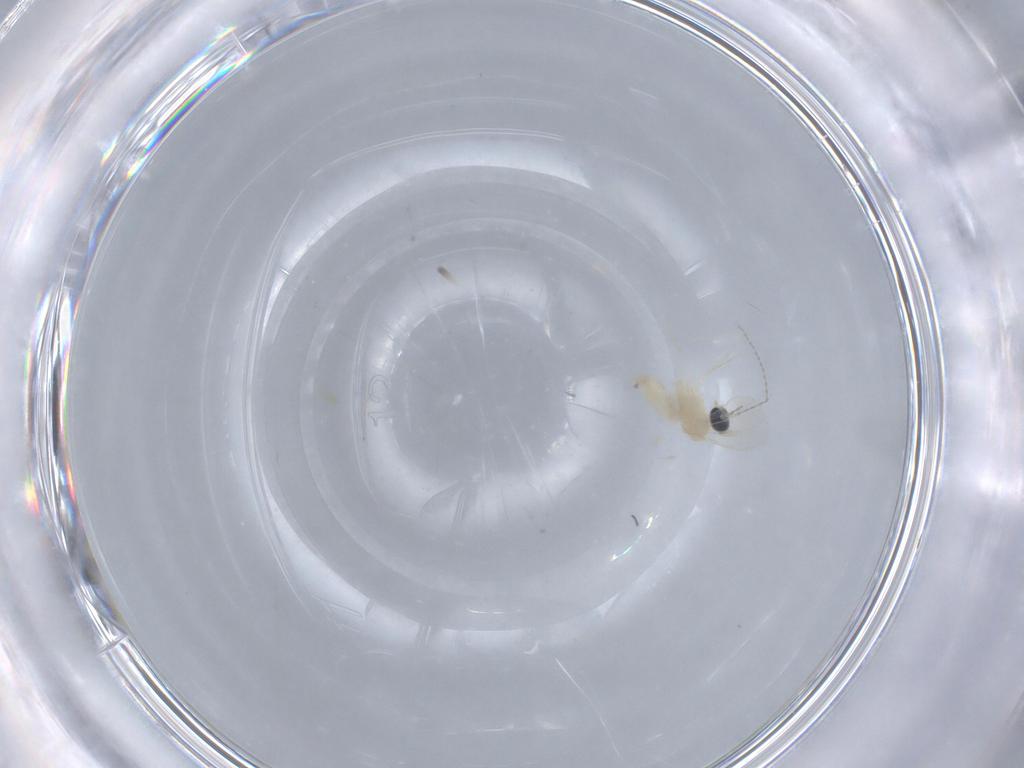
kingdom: Animalia
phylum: Arthropoda
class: Insecta
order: Diptera
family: Cecidomyiidae
